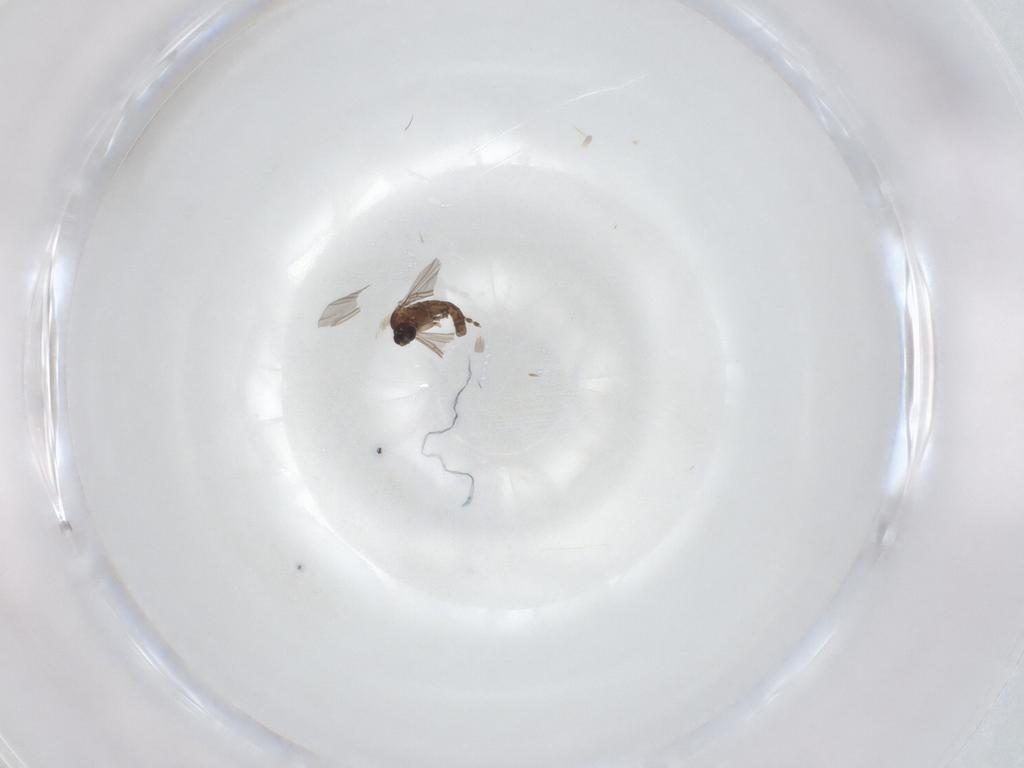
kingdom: Animalia
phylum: Arthropoda
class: Insecta
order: Diptera
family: Sciaridae
